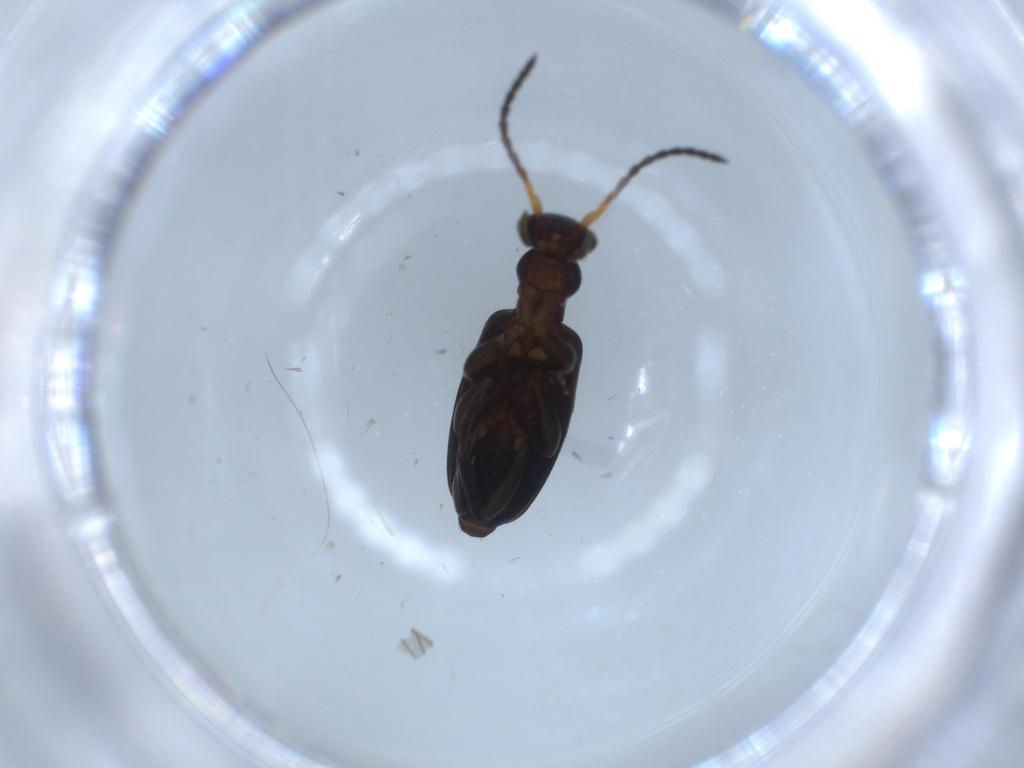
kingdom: Animalia
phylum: Arthropoda
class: Insecta
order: Coleoptera
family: Anthicidae
